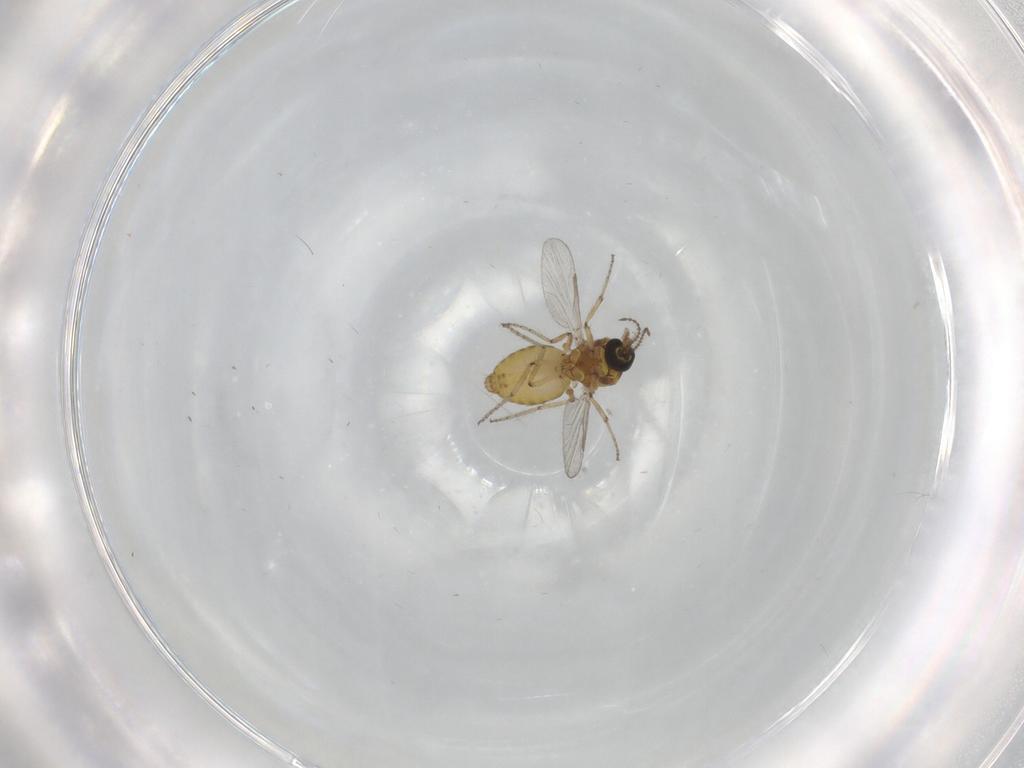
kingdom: Animalia
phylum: Arthropoda
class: Insecta
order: Diptera
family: Ceratopogonidae
